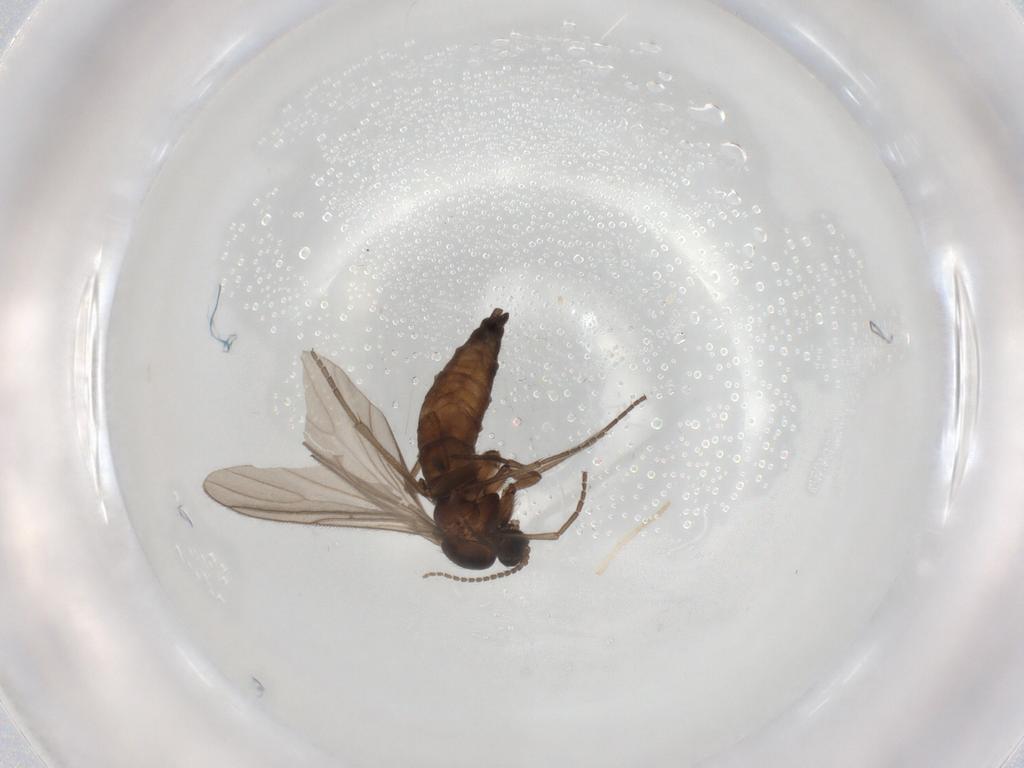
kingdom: Animalia
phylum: Arthropoda
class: Insecta
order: Diptera
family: Sciaridae
